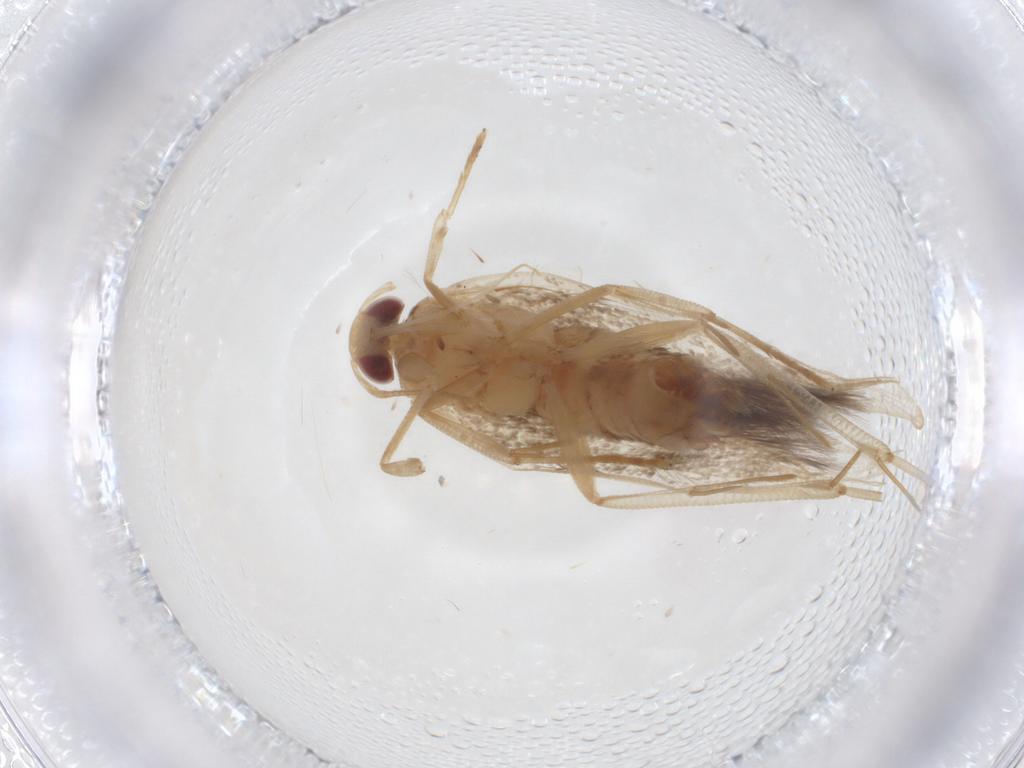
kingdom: Animalia
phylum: Arthropoda
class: Insecta
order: Lepidoptera
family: Cosmopterigidae
